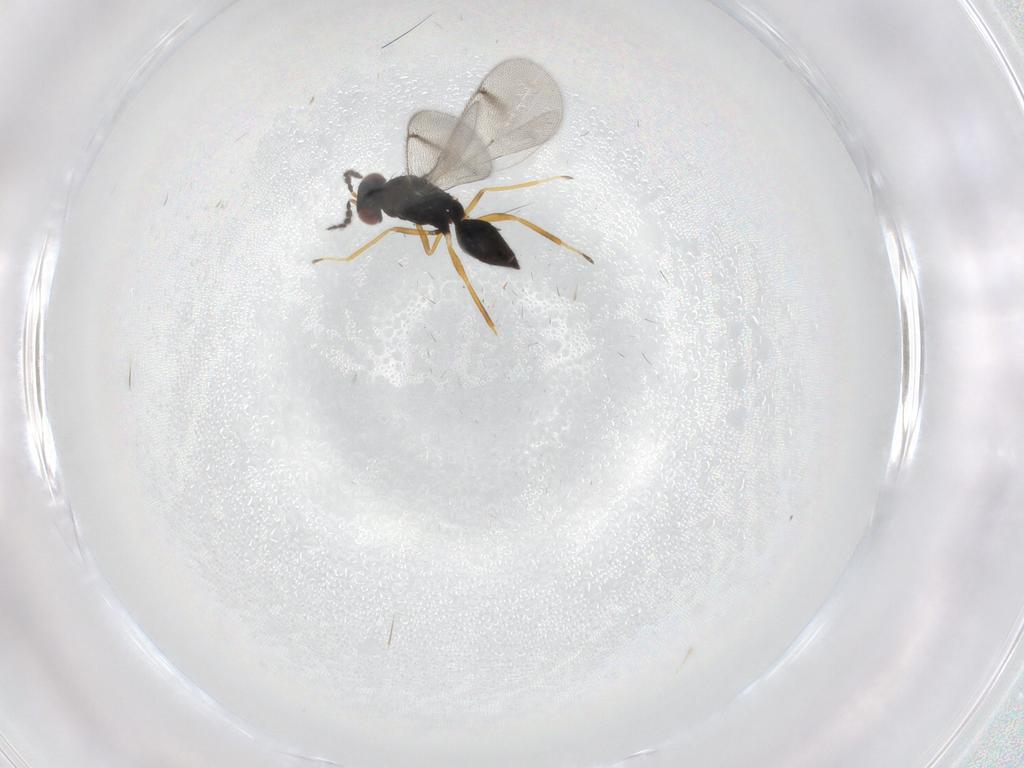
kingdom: Animalia
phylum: Arthropoda
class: Insecta
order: Hymenoptera
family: Eulophidae
